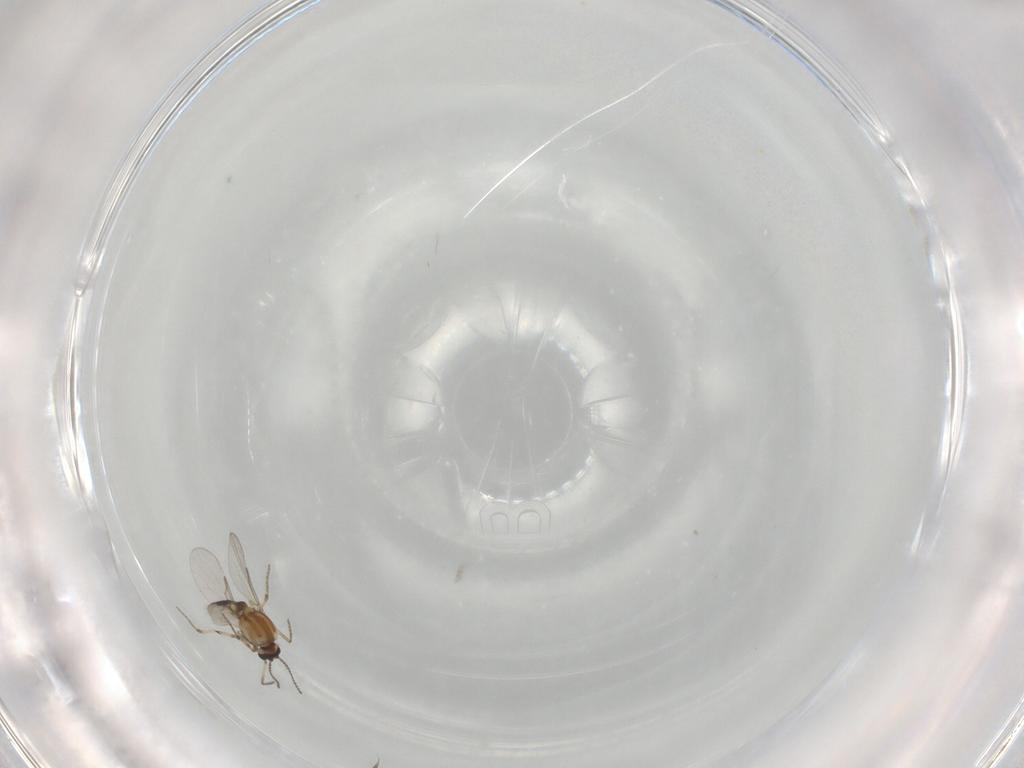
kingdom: Animalia
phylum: Arthropoda
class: Insecta
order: Diptera
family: Ceratopogonidae
